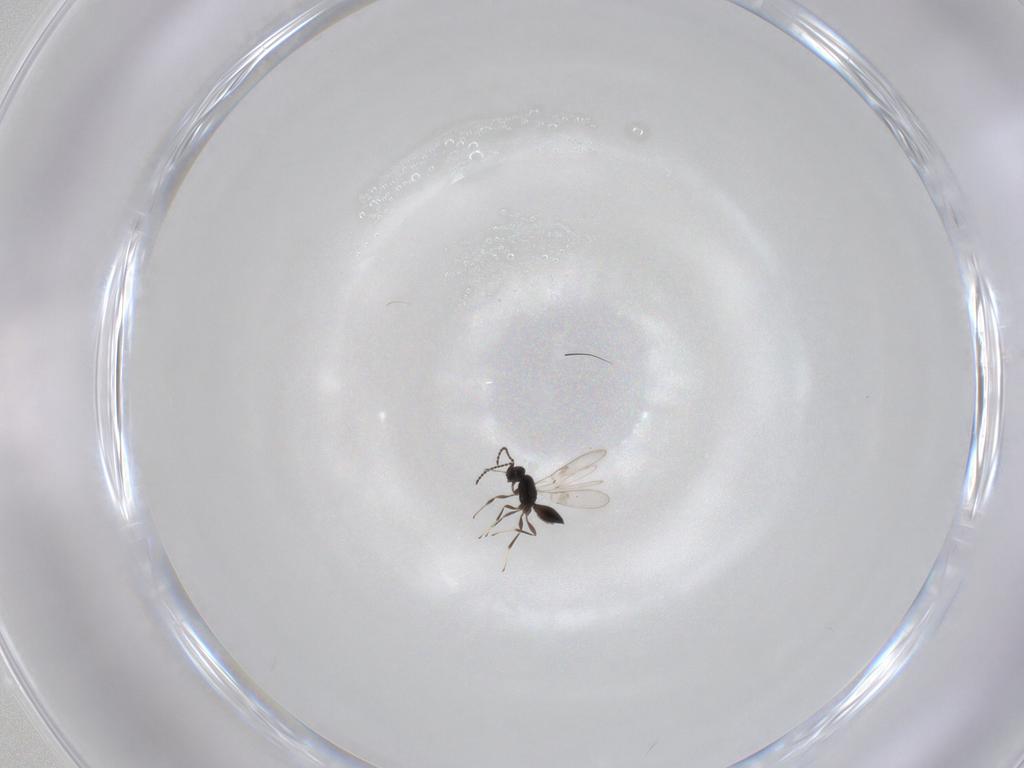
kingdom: Animalia
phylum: Arthropoda
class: Insecta
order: Hymenoptera
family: Scelionidae
